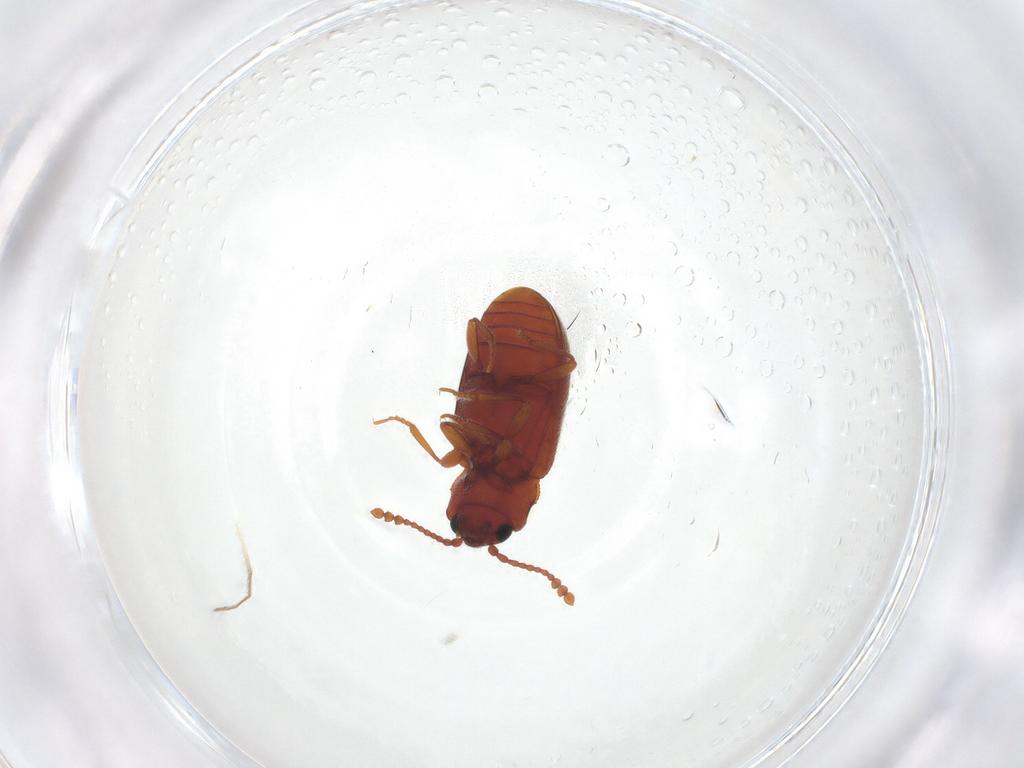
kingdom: Animalia
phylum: Arthropoda
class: Insecta
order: Coleoptera
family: Cryptophagidae
